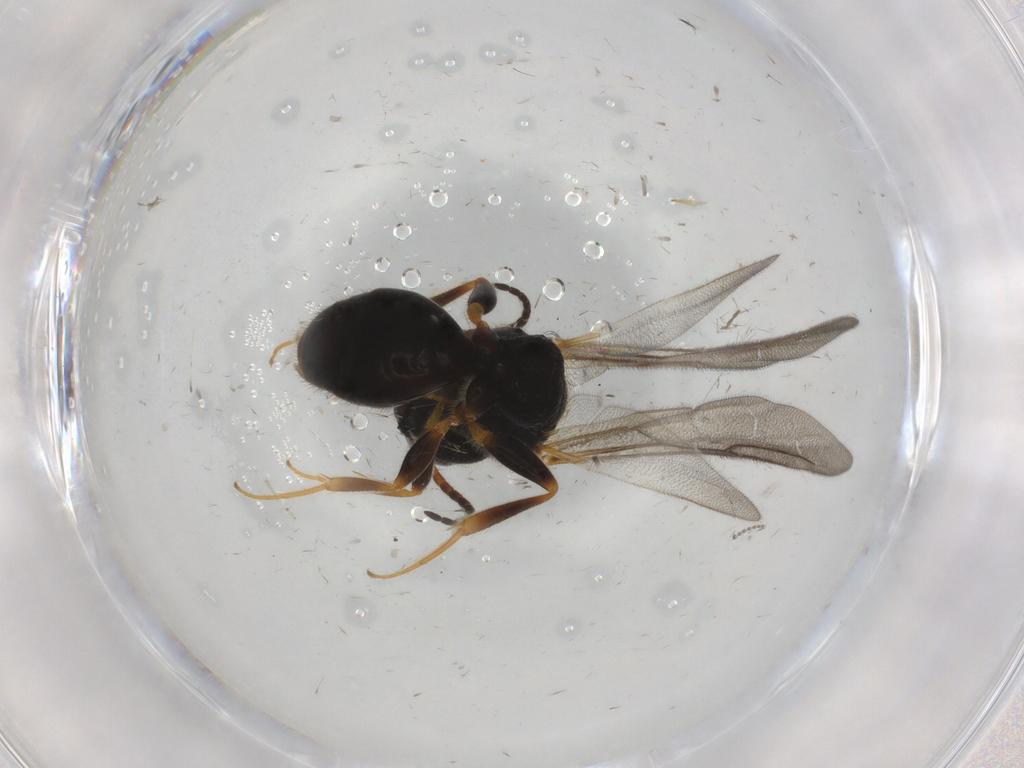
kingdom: Animalia
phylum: Arthropoda
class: Insecta
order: Hymenoptera
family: Bethylidae
